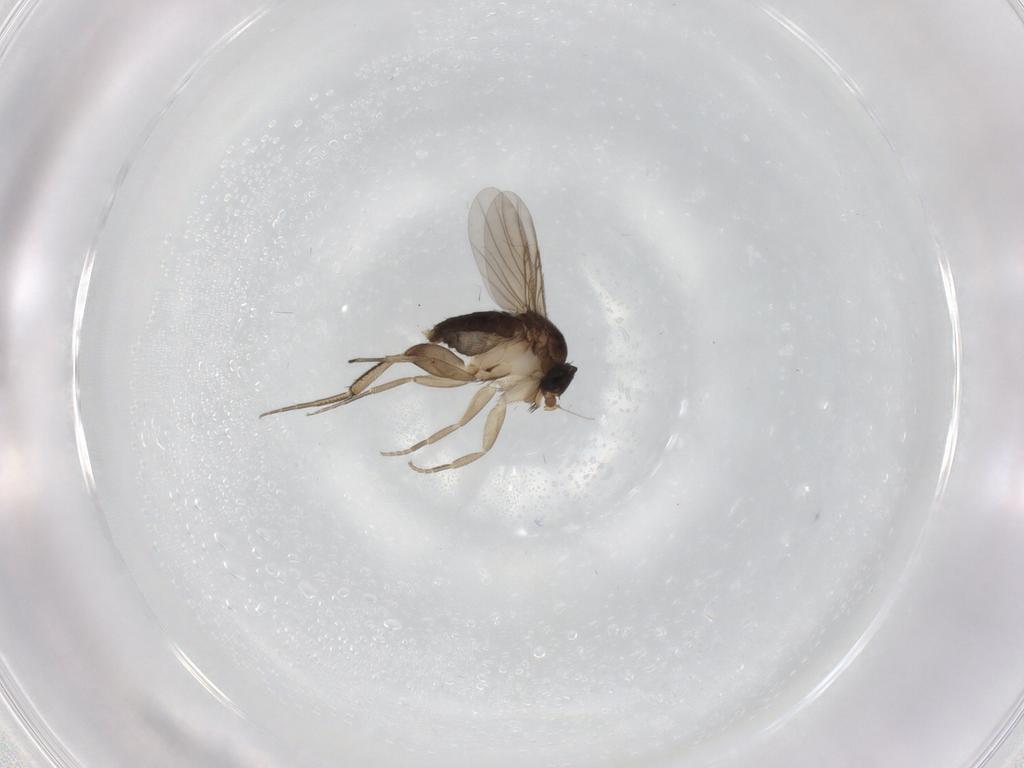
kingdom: Animalia
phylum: Arthropoda
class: Insecta
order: Diptera
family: Phoridae
